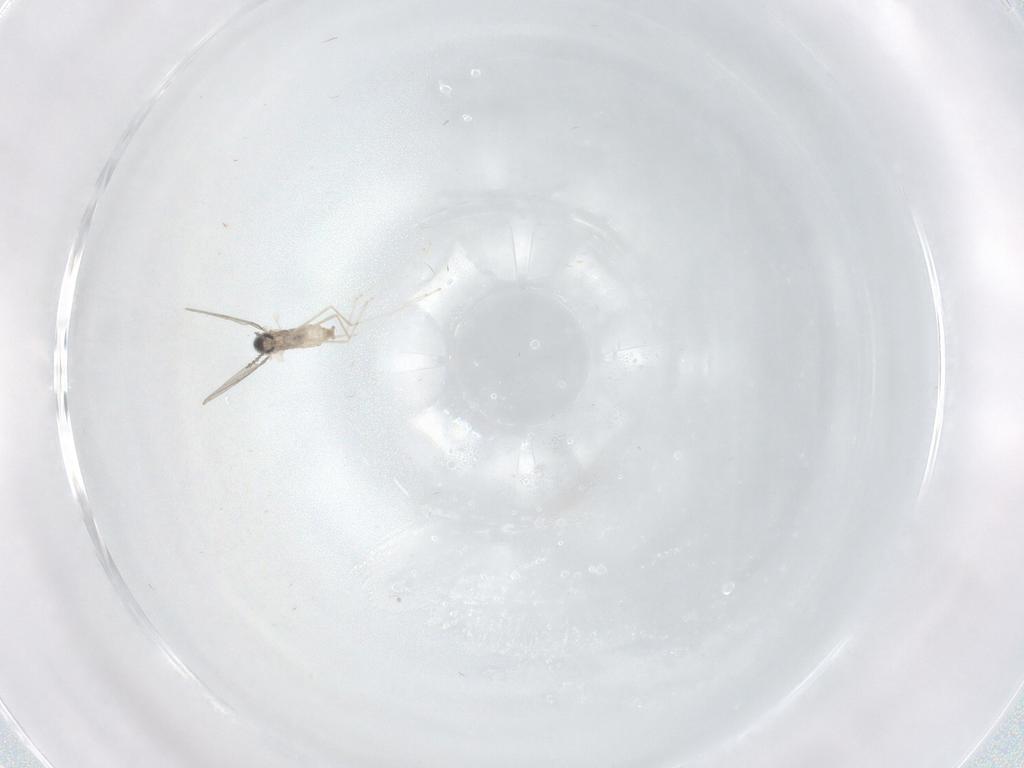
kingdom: Animalia
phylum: Arthropoda
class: Insecta
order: Diptera
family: Cecidomyiidae
